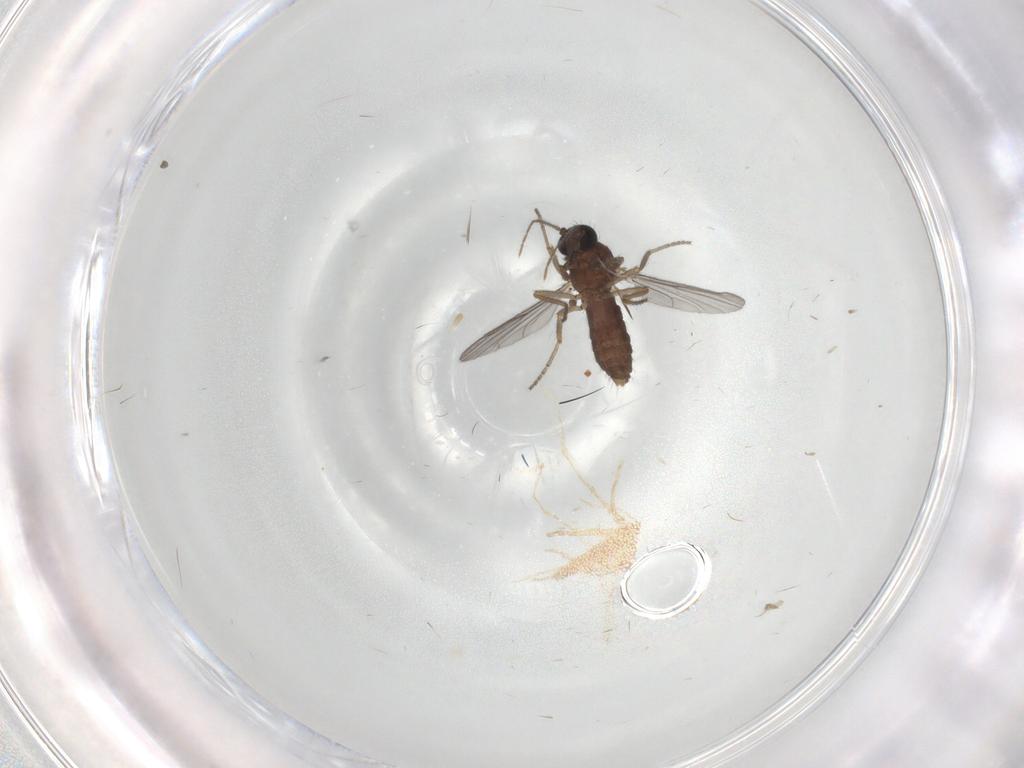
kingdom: Animalia
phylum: Arthropoda
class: Insecta
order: Diptera
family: Ceratopogonidae
